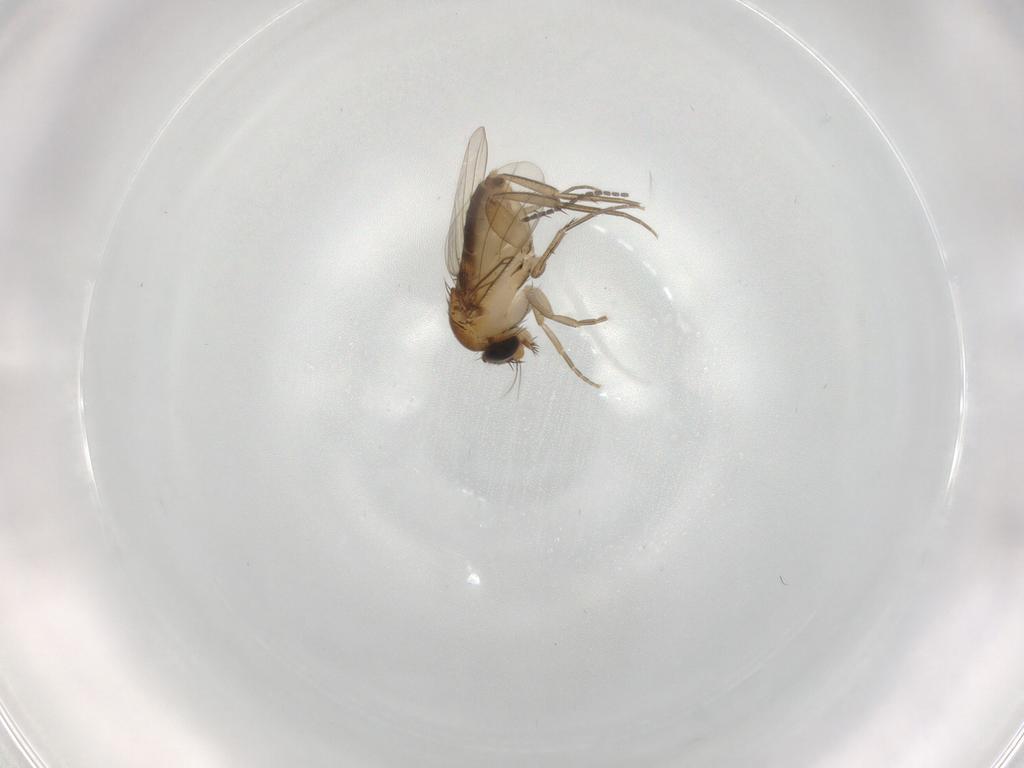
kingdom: Animalia
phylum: Arthropoda
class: Insecta
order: Diptera
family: Phoridae
